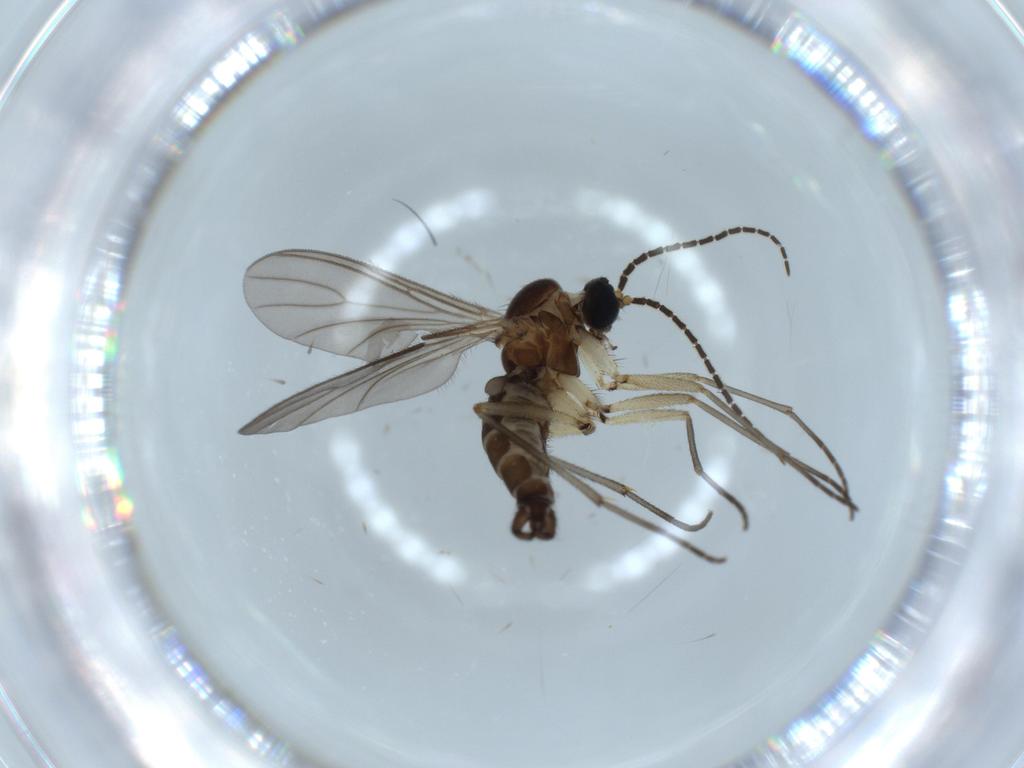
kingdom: Animalia
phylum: Arthropoda
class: Insecta
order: Diptera
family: Sciaridae
